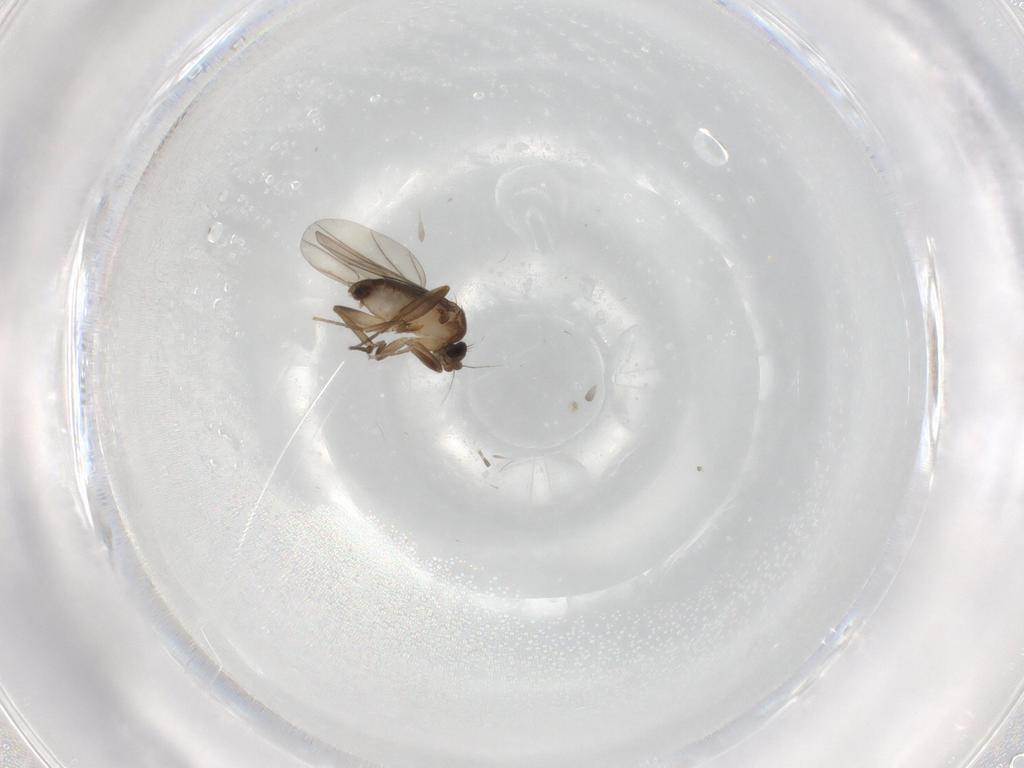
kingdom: Animalia
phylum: Arthropoda
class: Insecta
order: Diptera
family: Phoridae
